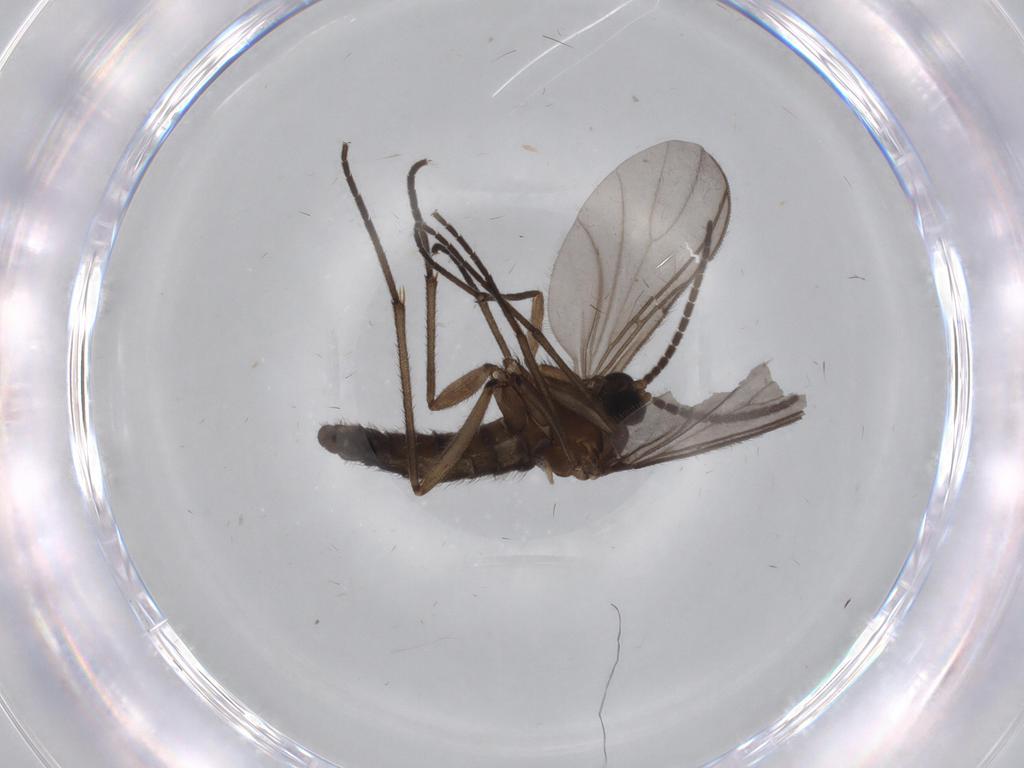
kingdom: Animalia
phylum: Arthropoda
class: Insecta
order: Diptera
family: Sciaridae
